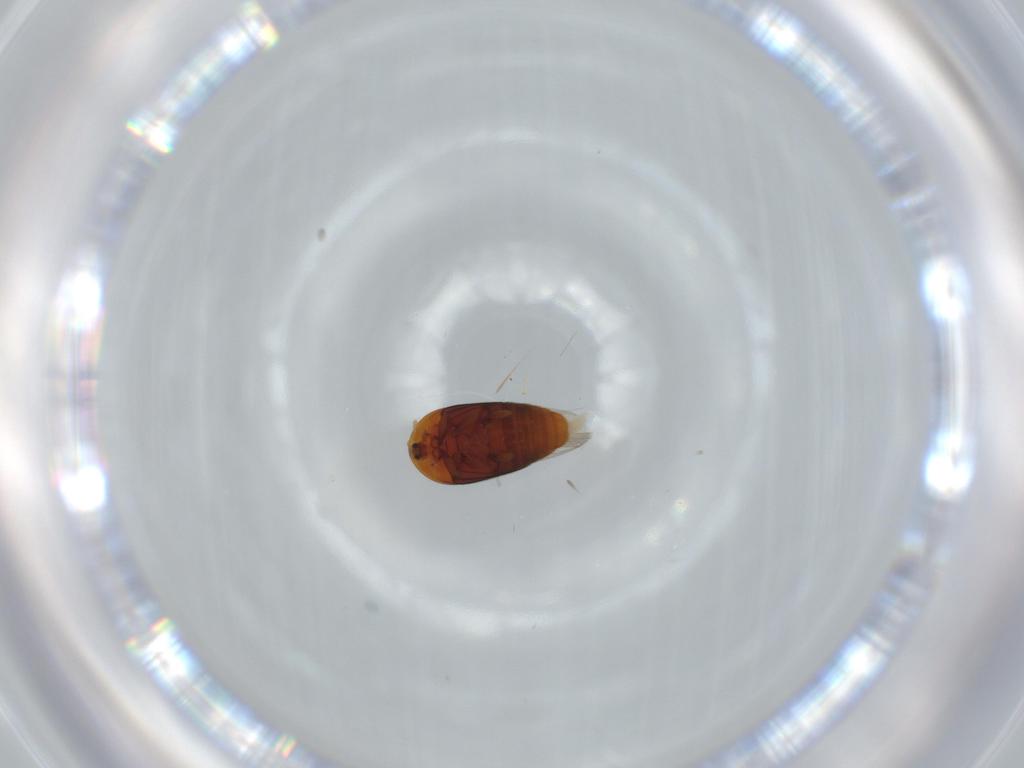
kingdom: Animalia
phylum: Arthropoda
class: Insecta
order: Coleoptera
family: Corylophidae
